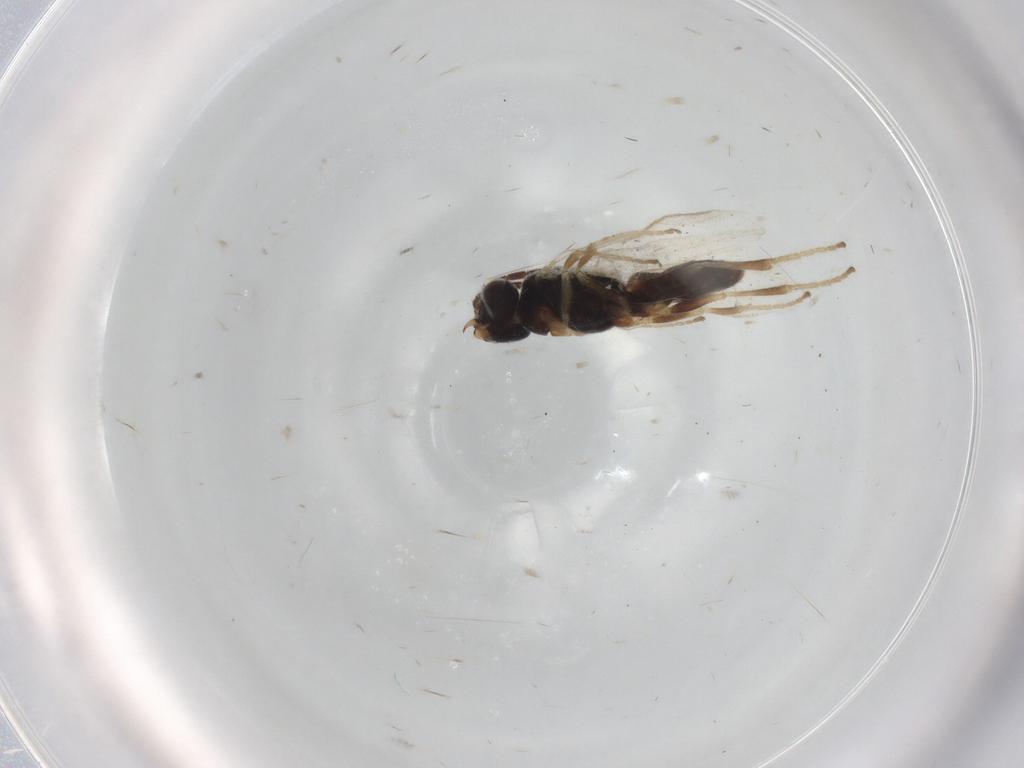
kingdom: Animalia
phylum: Arthropoda
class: Insecta
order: Hymenoptera
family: Dryinidae
